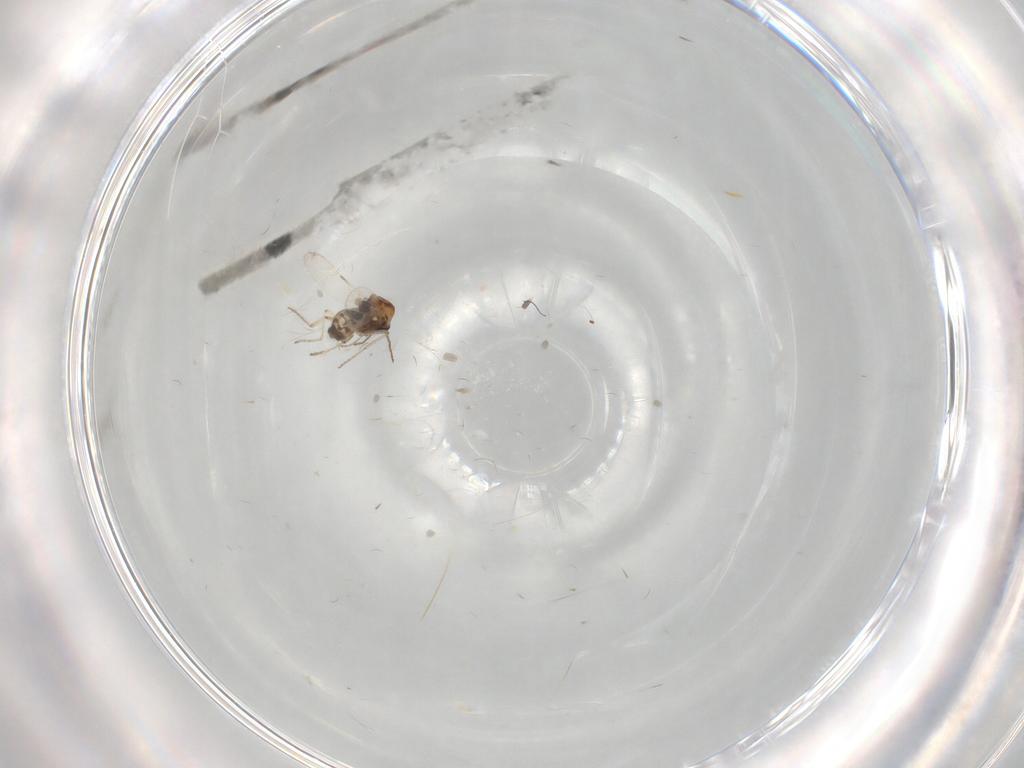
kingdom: Animalia
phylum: Arthropoda
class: Insecta
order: Diptera
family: Ceratopogonidae
